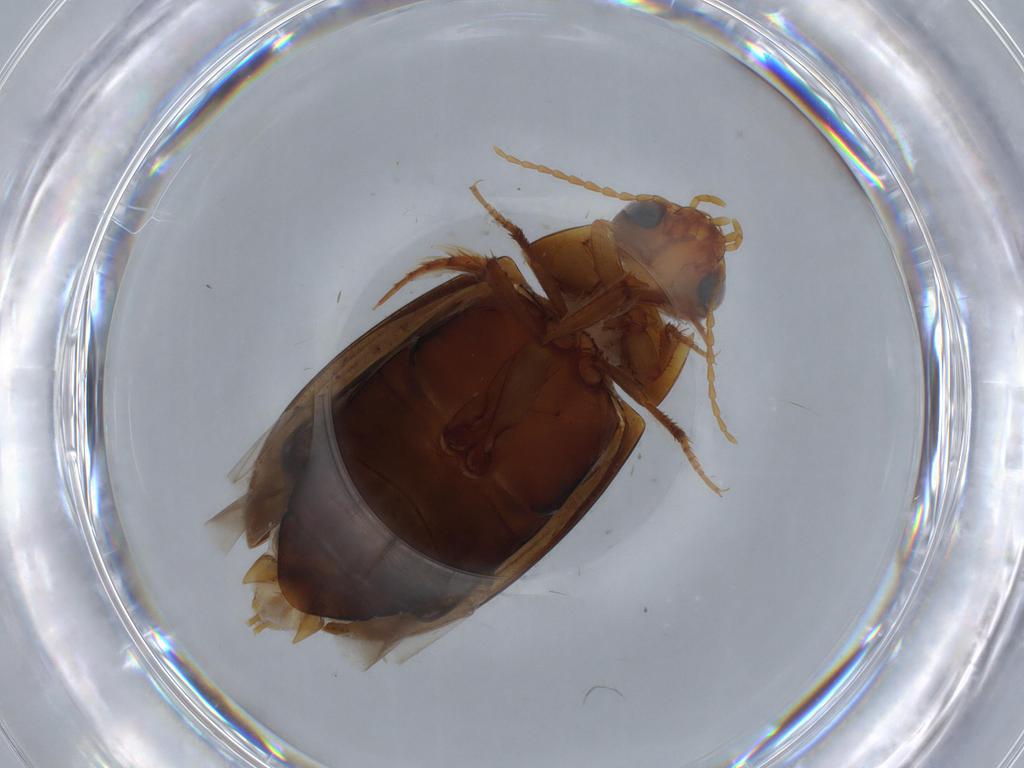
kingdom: Animalia
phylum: Arthropoda
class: Insecta
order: Coleoptera
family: Dytiscidae
